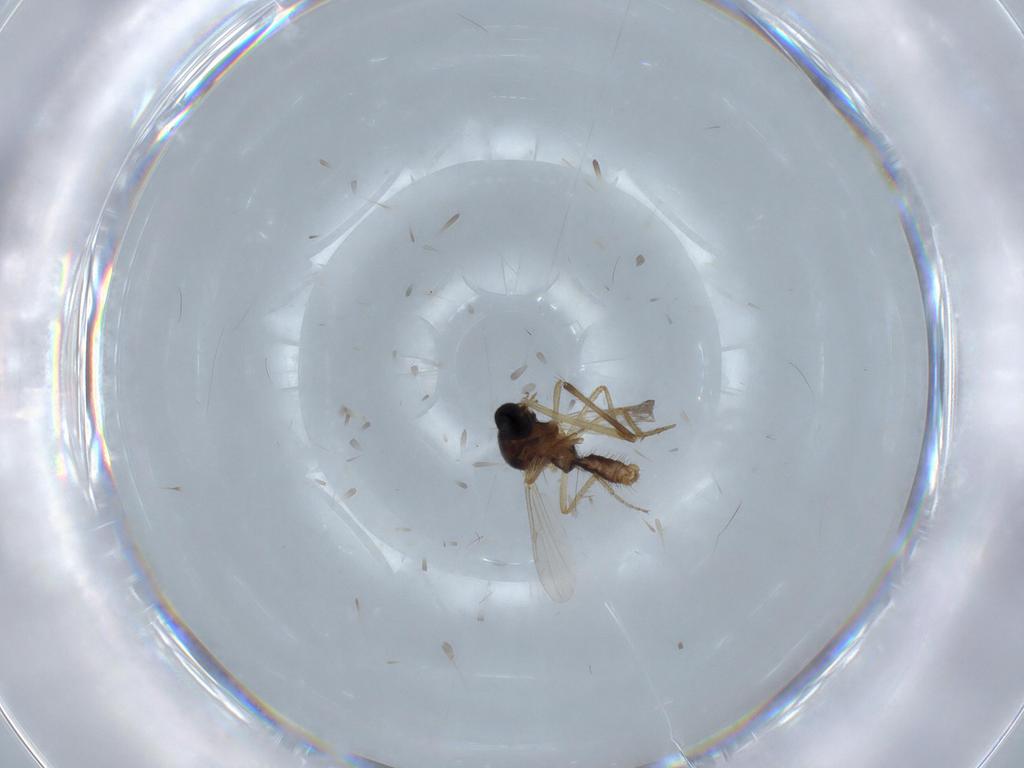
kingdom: Animalia
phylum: Arthropoda
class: Insecta
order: Diptera
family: Ceratopogonidae
